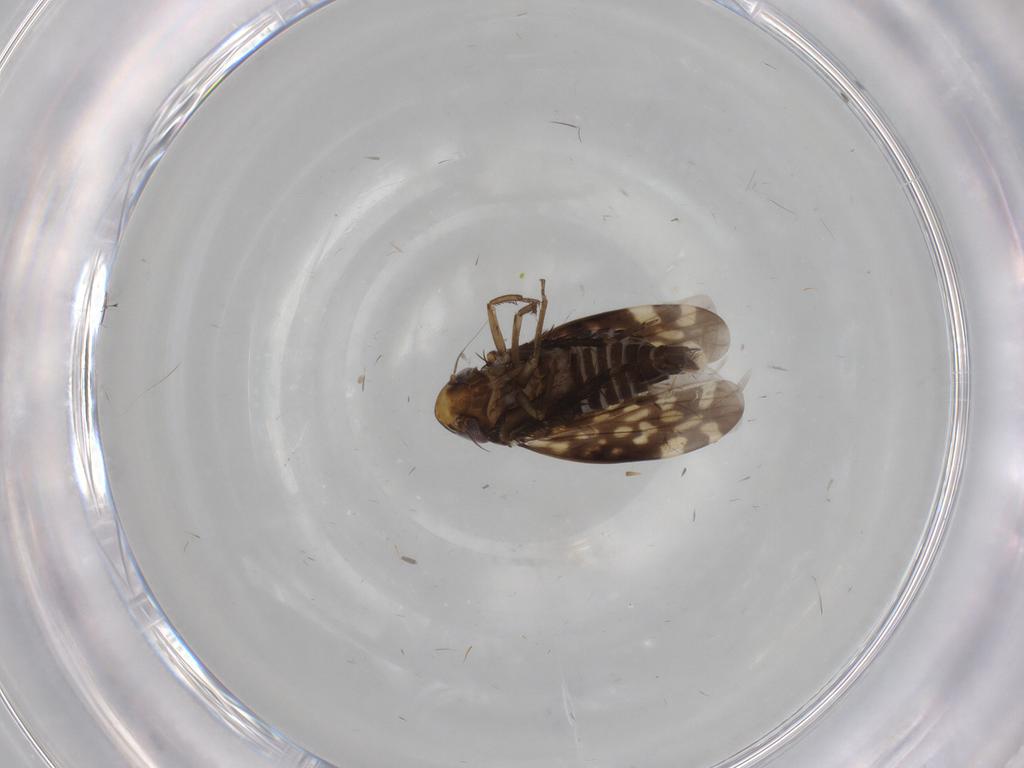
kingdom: Animalia
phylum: Arthropoda
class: Insecta
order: Hemiptera
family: Cicadellidae
